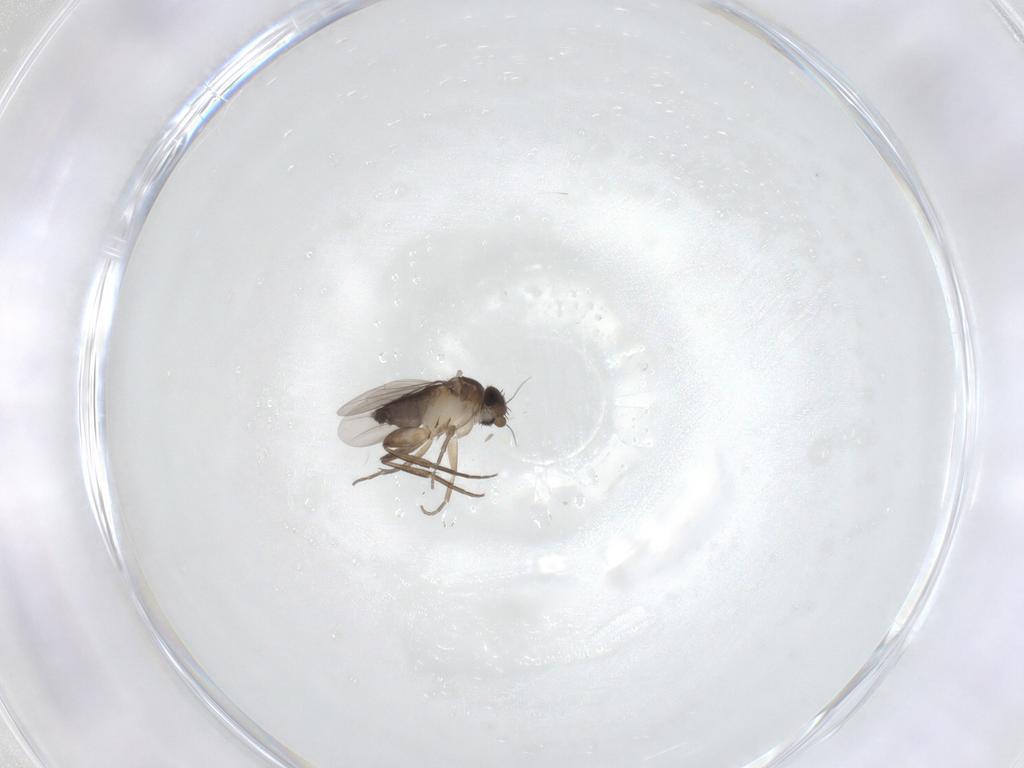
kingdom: Animalia
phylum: Arthropoda
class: Insecta
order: Diptera
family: Phoridae
